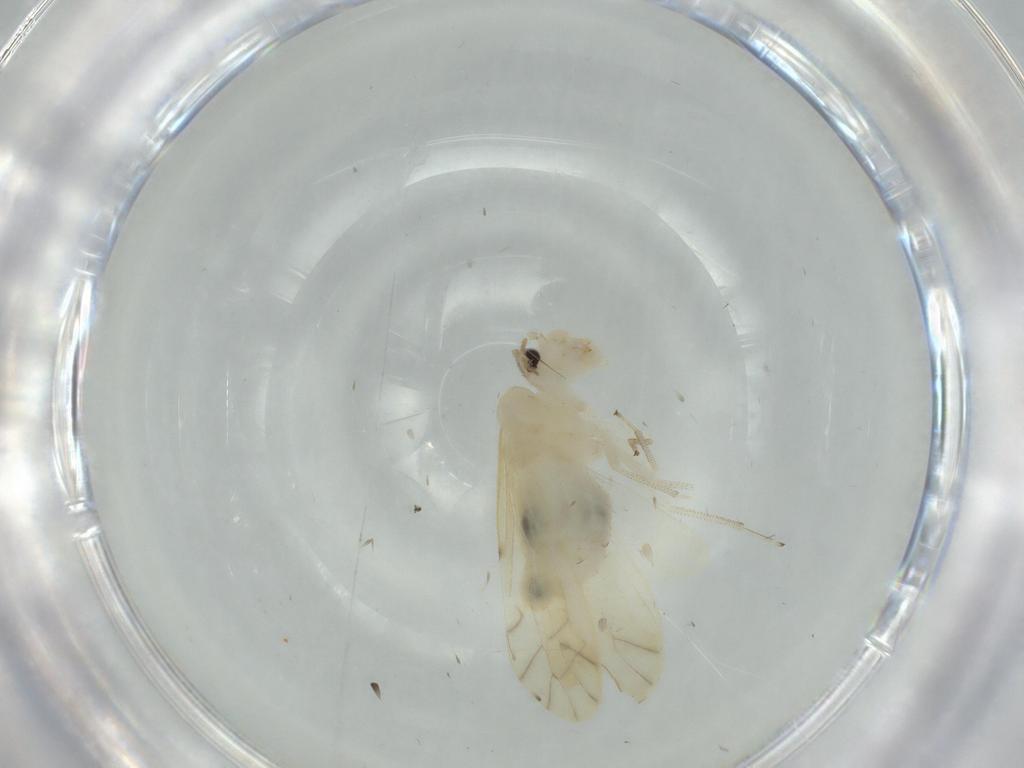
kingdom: Animalia
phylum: Arthropoda
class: Insecta
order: Psocodea
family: Caeciliusidae
